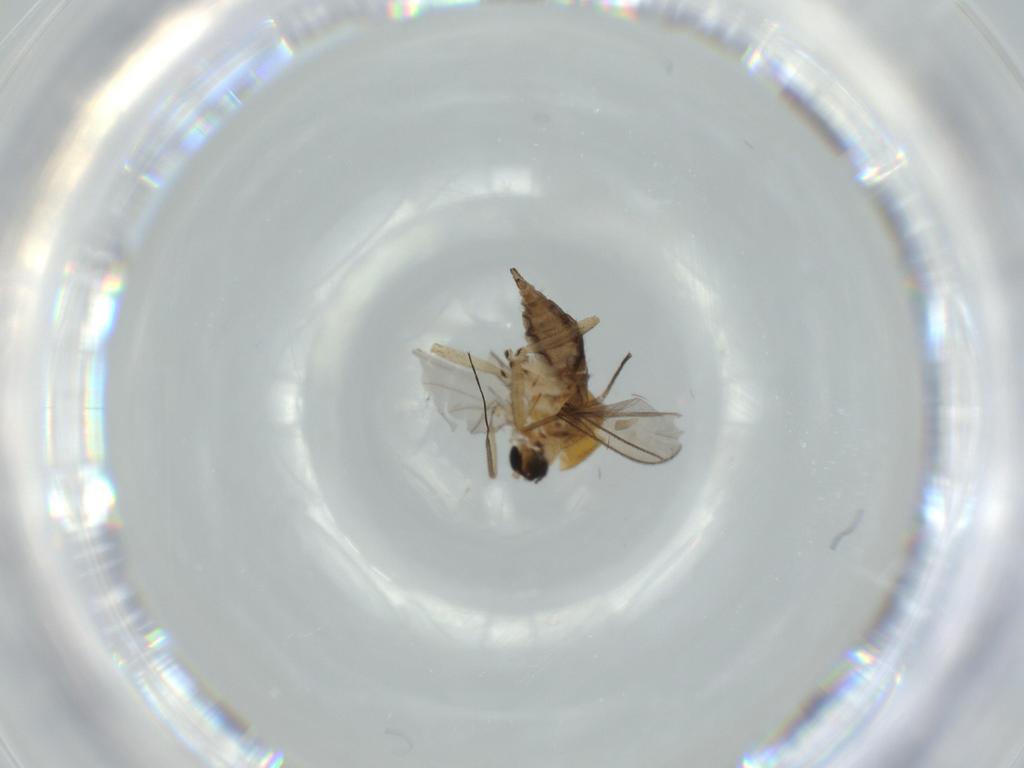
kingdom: Animalia
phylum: Arthropoda
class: Insecta
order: Diptera
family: Sciaridae
